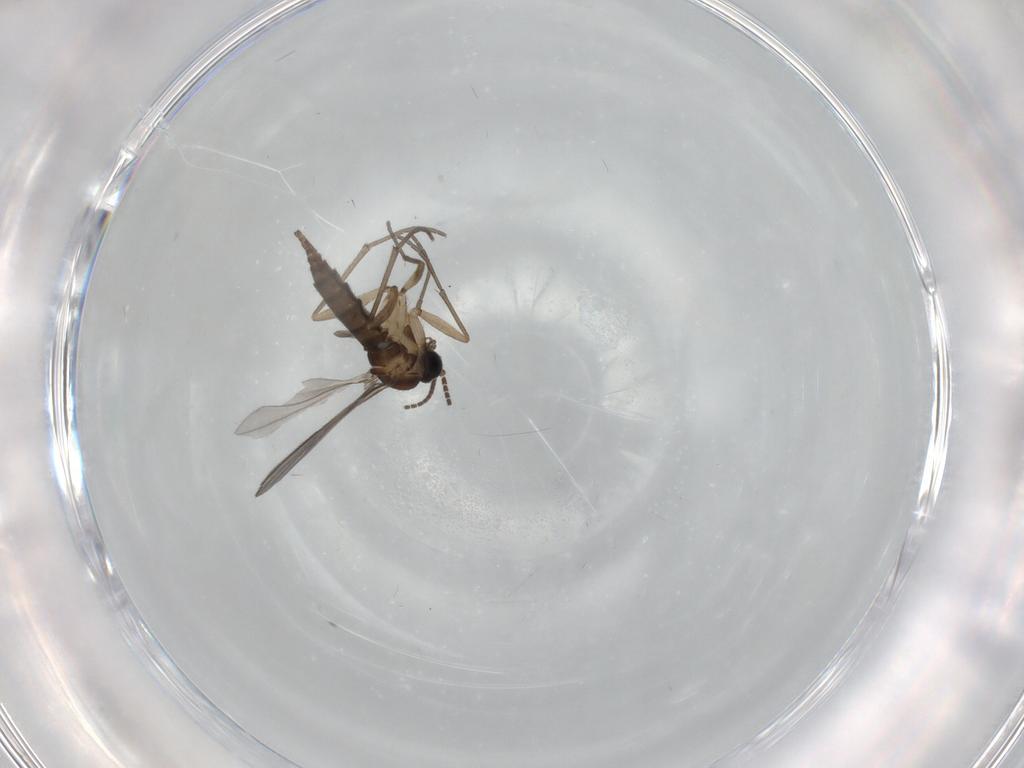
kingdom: Animalia
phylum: Arthropoda
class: Insecta
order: Diptera
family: Sciaridae
